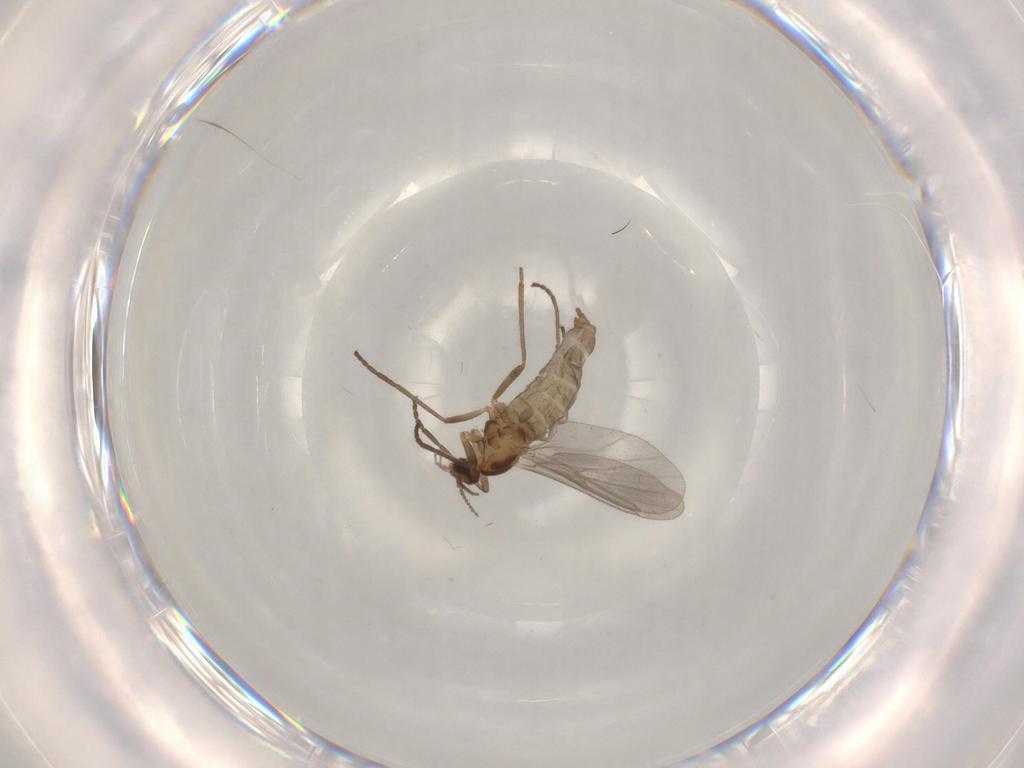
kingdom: Animalia
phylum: Arthropoda
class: Insecta
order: Diptera
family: Cecidomyiidae
